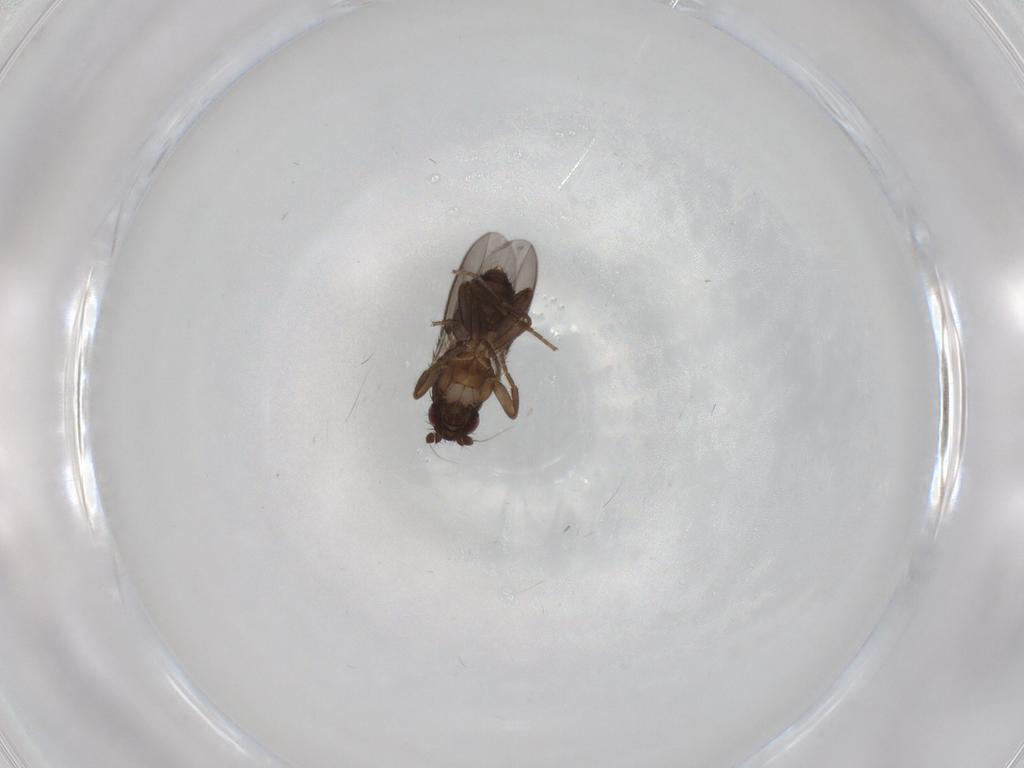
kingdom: Animalia
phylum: Arthropoda
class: Insecta
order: Diptera
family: Sphaeroceridae
